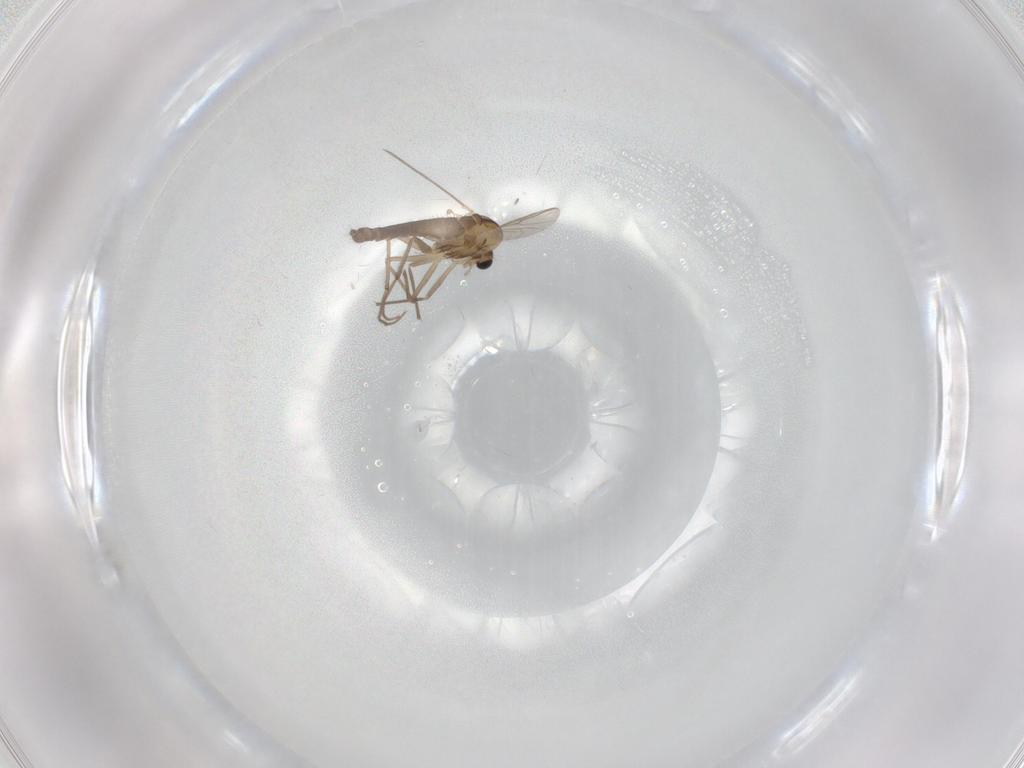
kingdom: Animalia
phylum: Arthropoda
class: Insecta
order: Diptera
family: Chironomidae
